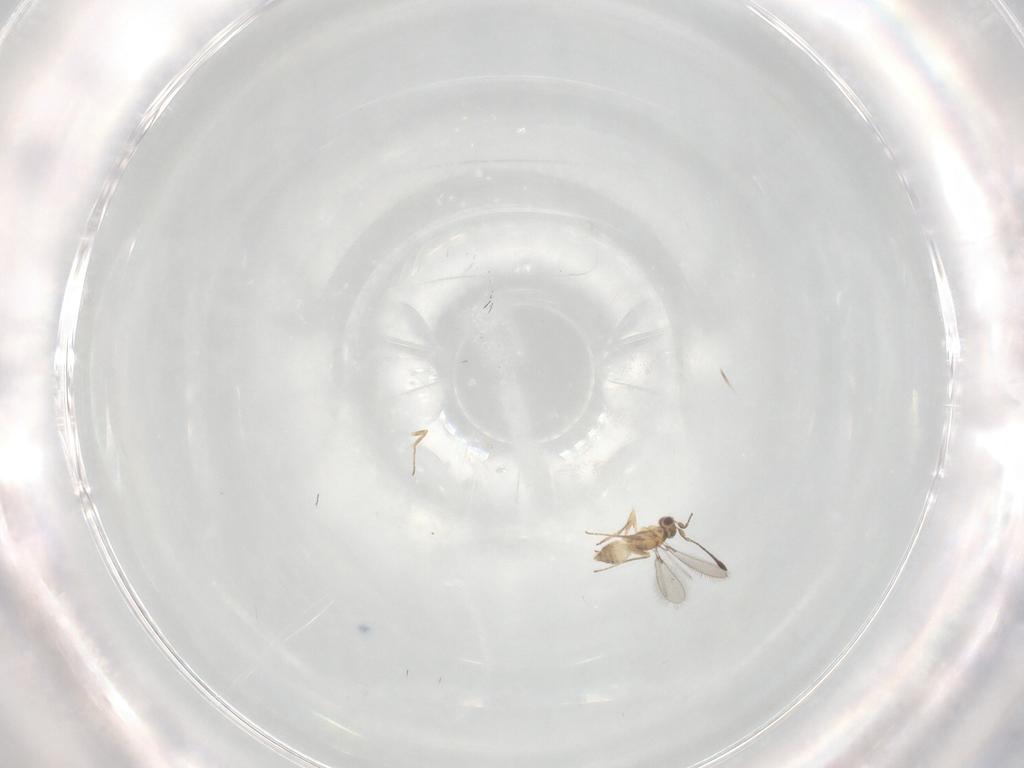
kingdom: Animalia
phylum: Arthropoda
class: Insecta
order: Hymenoptera
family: Mymaridae
